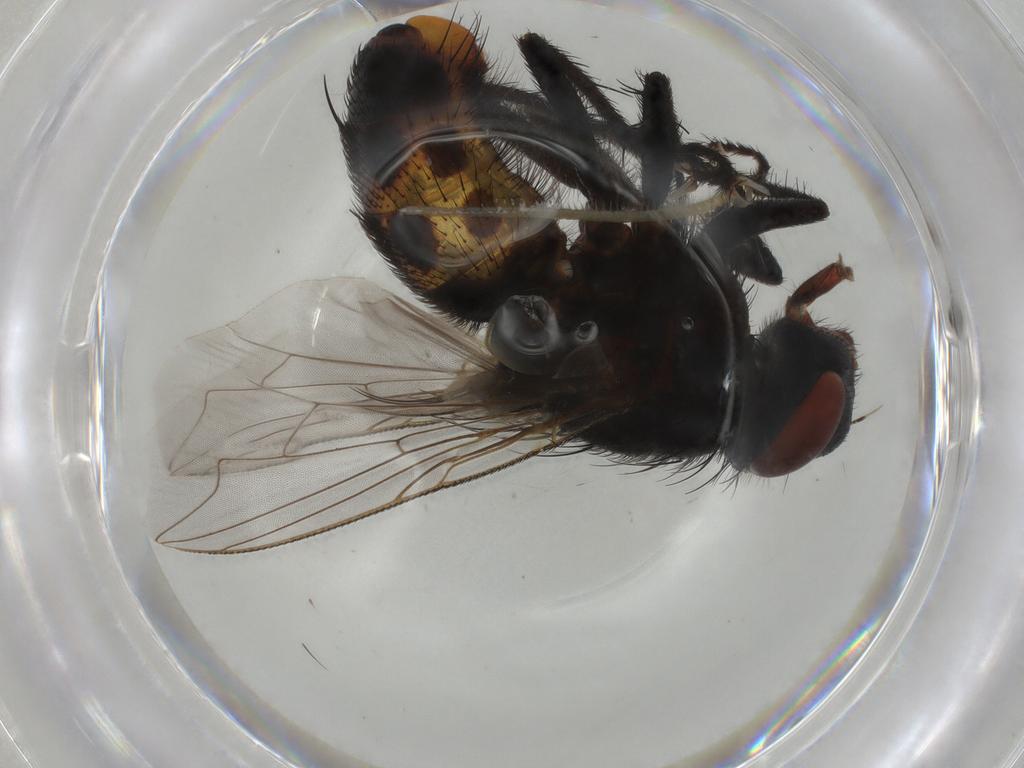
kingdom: Animalia
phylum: Arthropoda
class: Insecta
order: Diptera
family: Sarcophagidae
